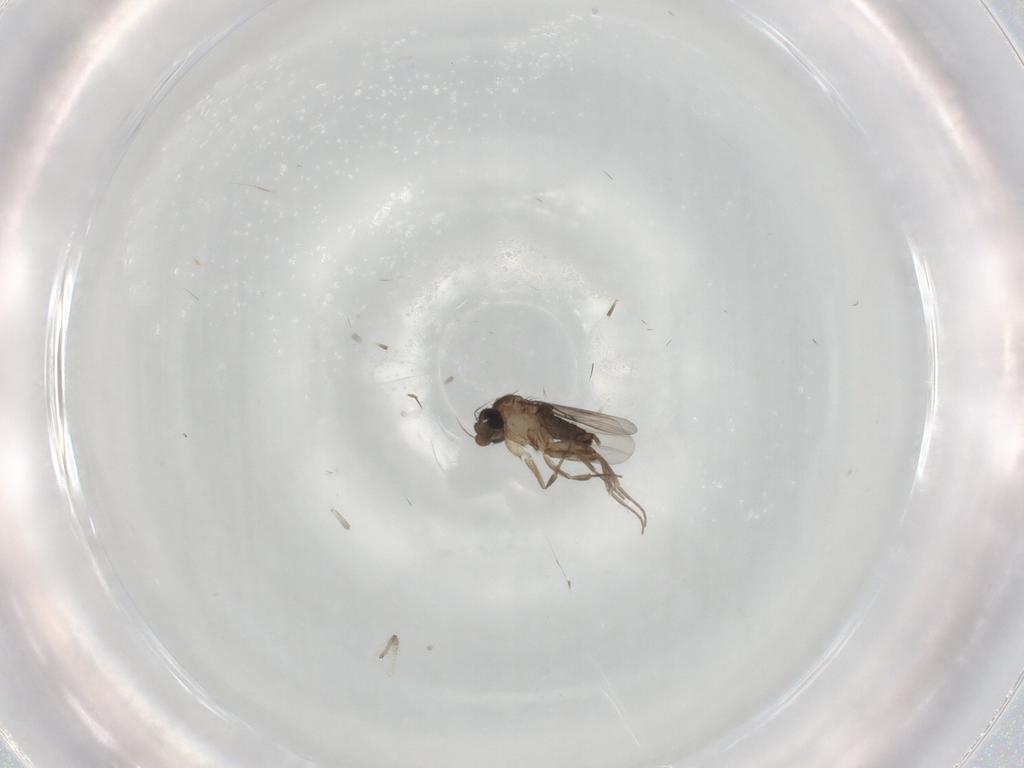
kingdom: Animalia
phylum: Arthropoda
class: Insecta
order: Diptera
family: Chironomidae
